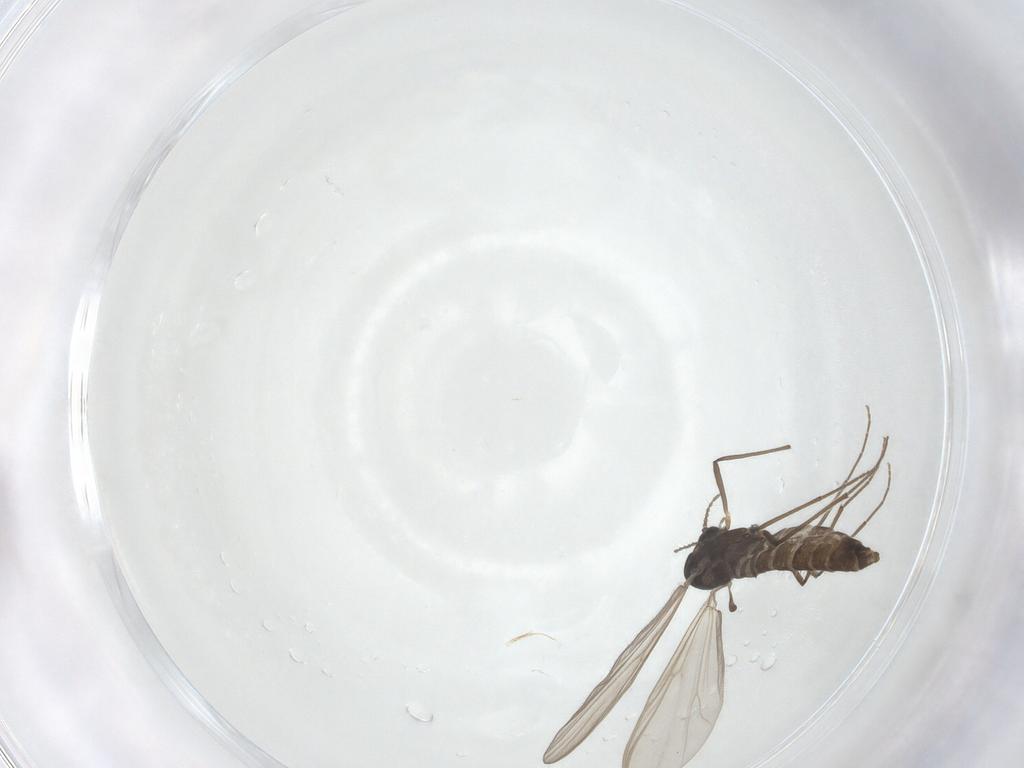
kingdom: Animalia
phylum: Arthropoda
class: Insecta
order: Diptera
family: Chironomidae
